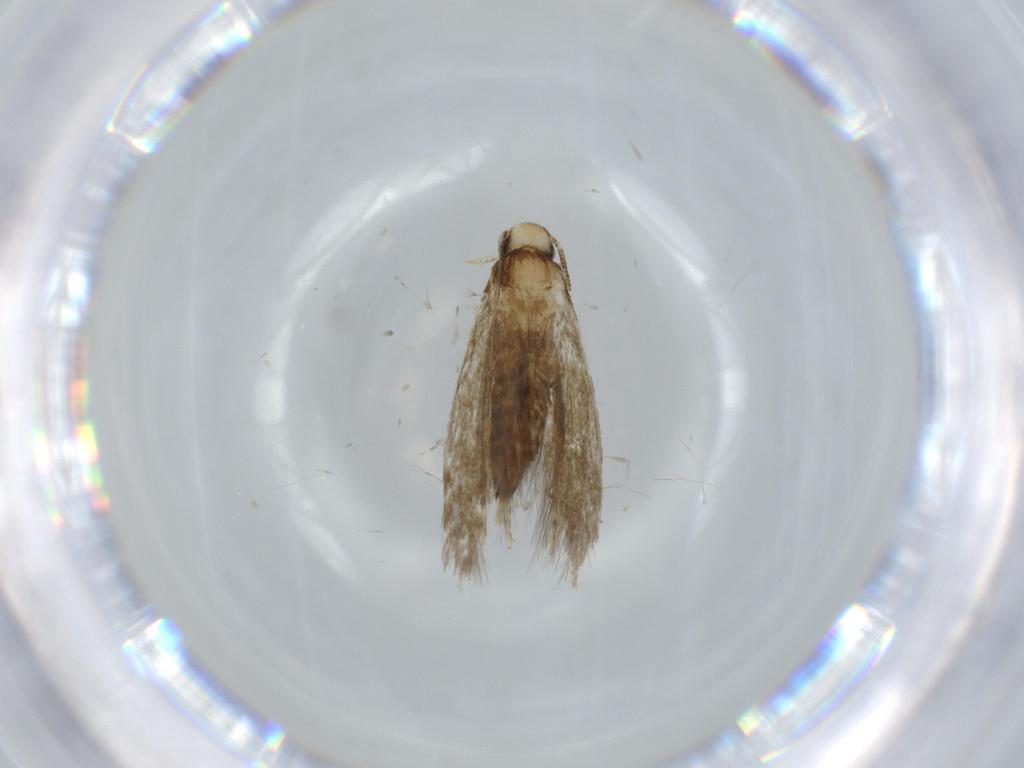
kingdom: Animalia
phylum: Arthropoda
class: Insecta
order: Lepidoptera
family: Tineidae
